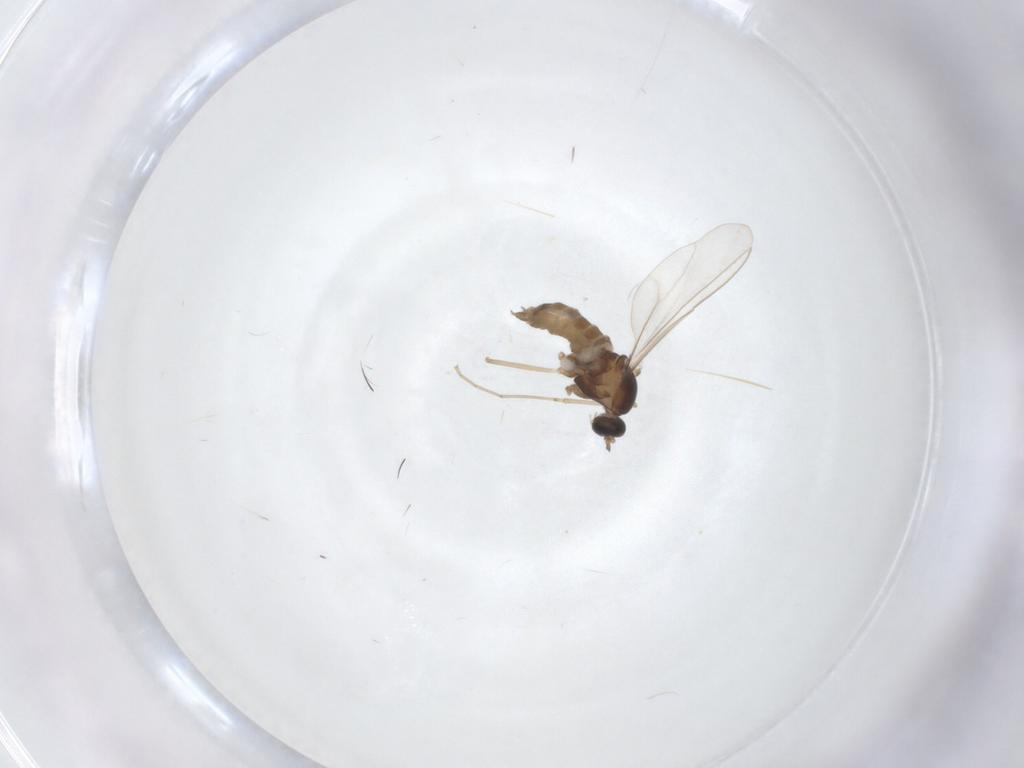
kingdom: Animalia
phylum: Arthropoda
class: Insecta
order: Diptera
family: Cecidomyiidae
